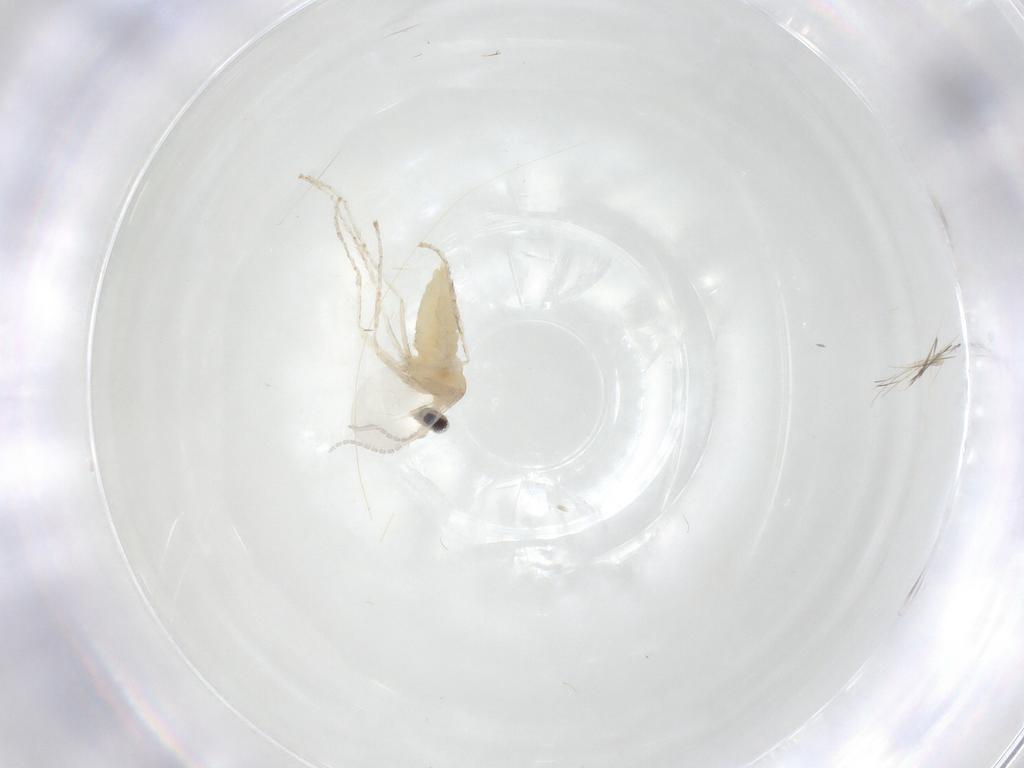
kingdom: Animalia
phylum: Arthropoda
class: Insecta
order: Diptera
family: Cecidomyiidae
